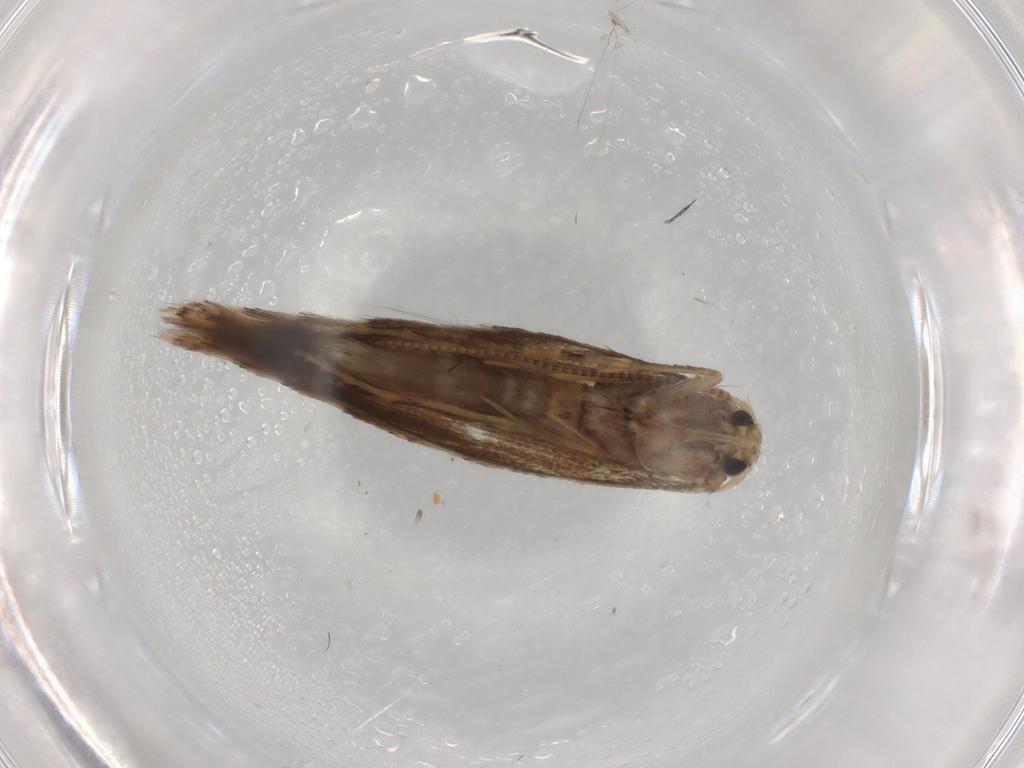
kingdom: Animalia
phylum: Arthropoda
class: Insecta
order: Lepidoptera
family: Gracillariidae
